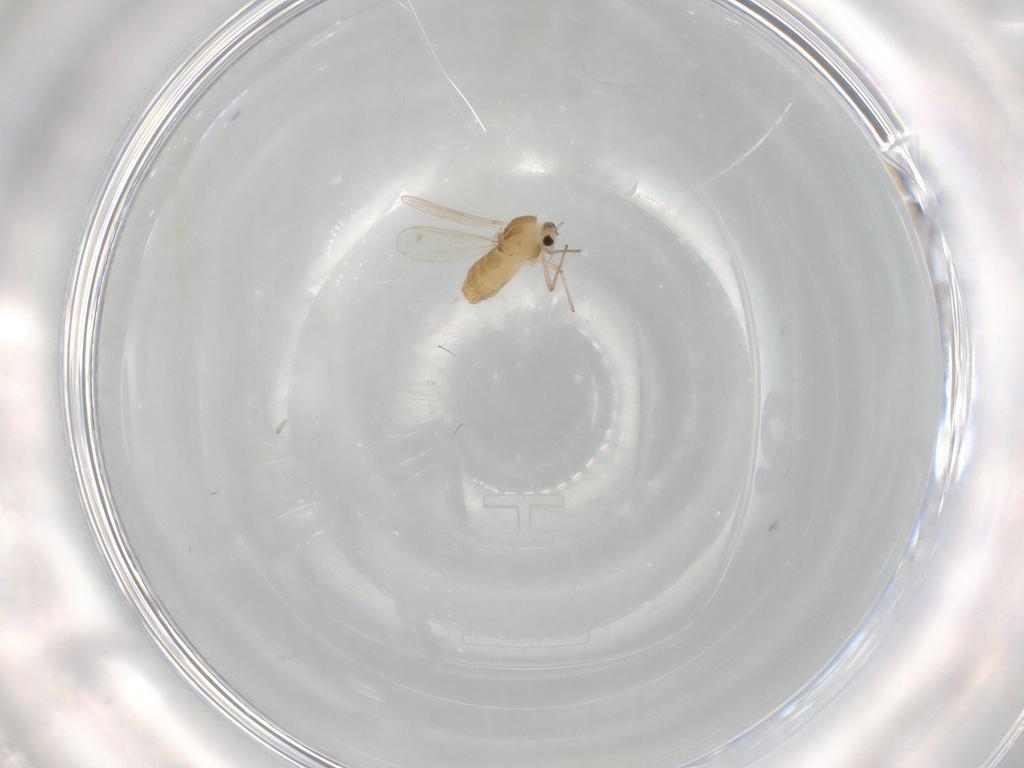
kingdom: Animalia
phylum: Arthropoda
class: Insecta
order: Diptera
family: Chironomidae
